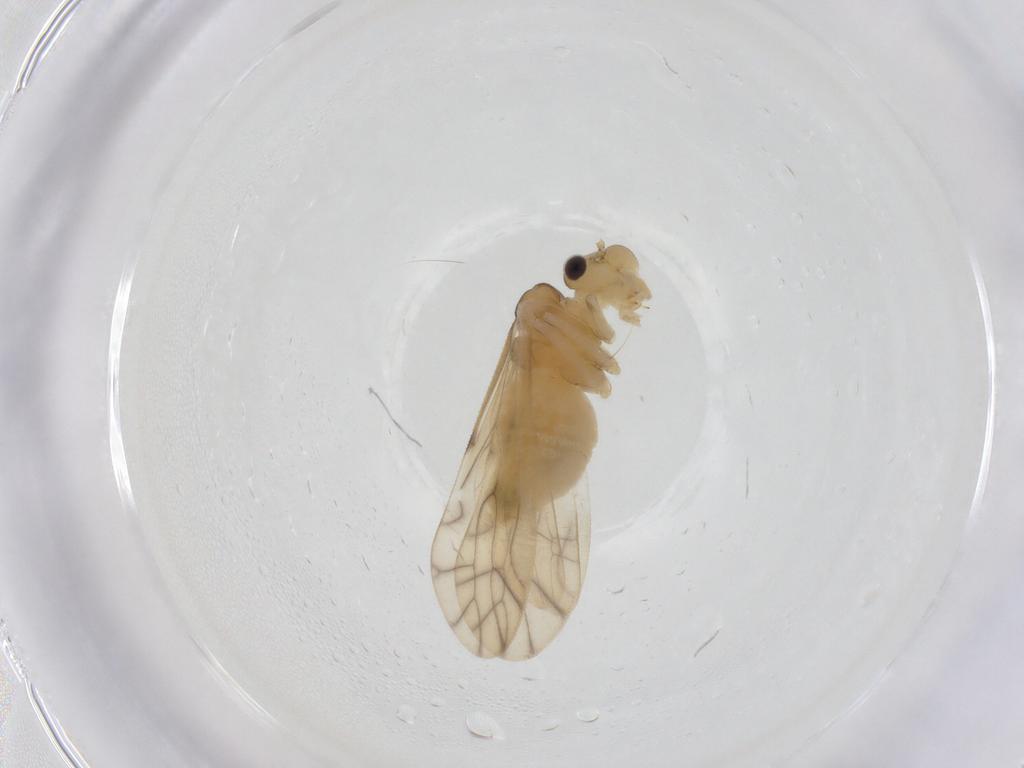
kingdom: Animalia
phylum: Arthropoda
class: Insecta
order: Psocodea
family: Caeciliusidae
